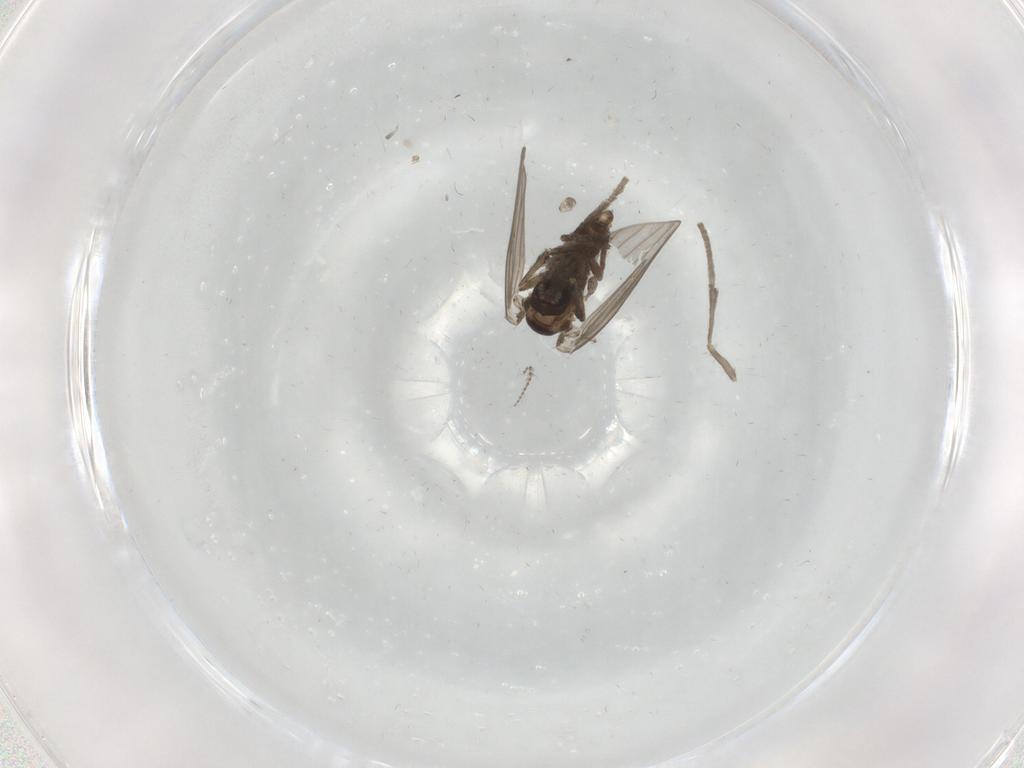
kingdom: Animalia
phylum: Arthropoda
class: Insecta
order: Diptera
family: Psychodidae
